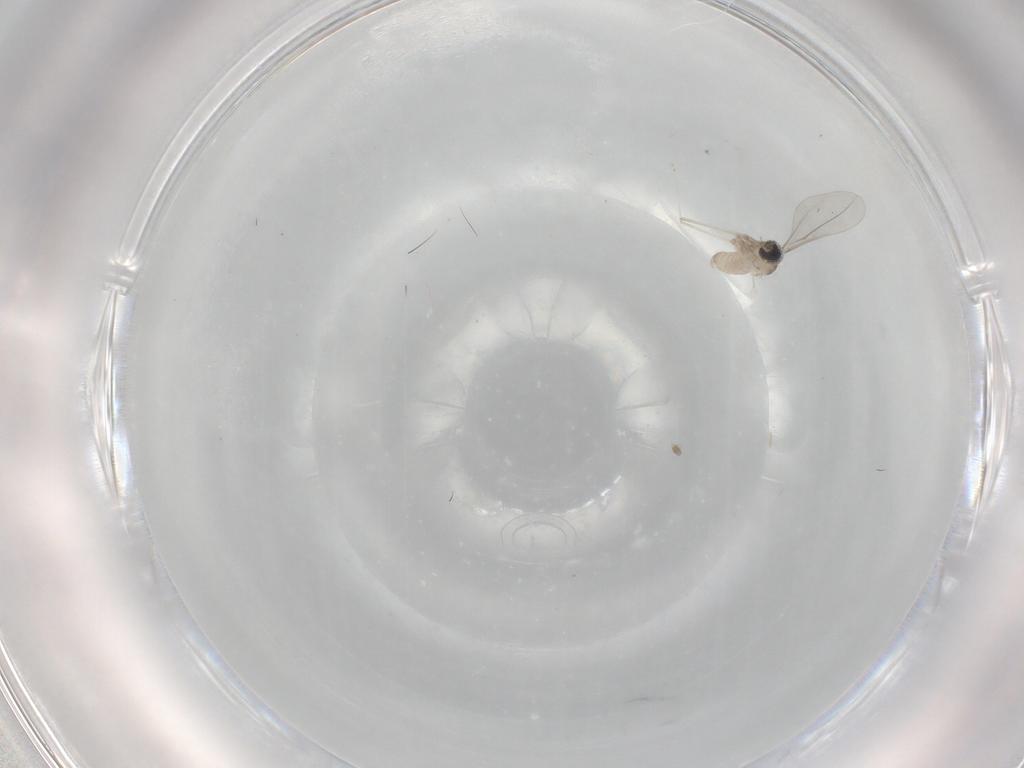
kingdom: Animalia
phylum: Arthropoda
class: Insecta
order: Diptera
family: Cecidomyiidae
